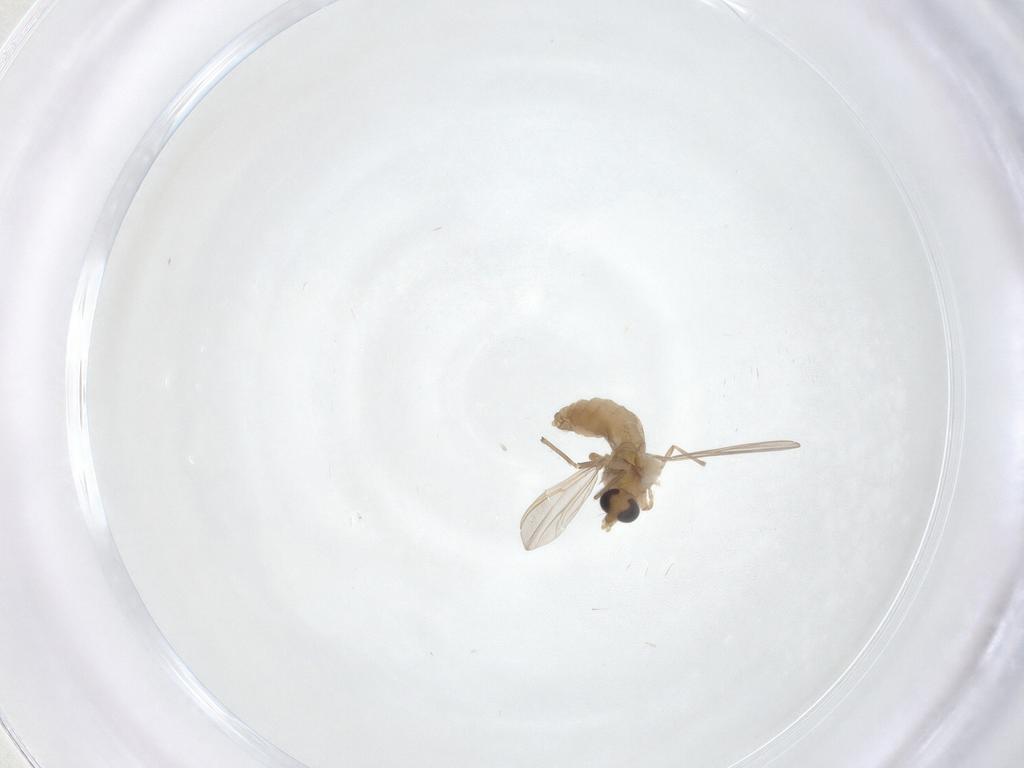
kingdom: Animalia
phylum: Arthropoda
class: Insecta
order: Diptera
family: Chironomidae
